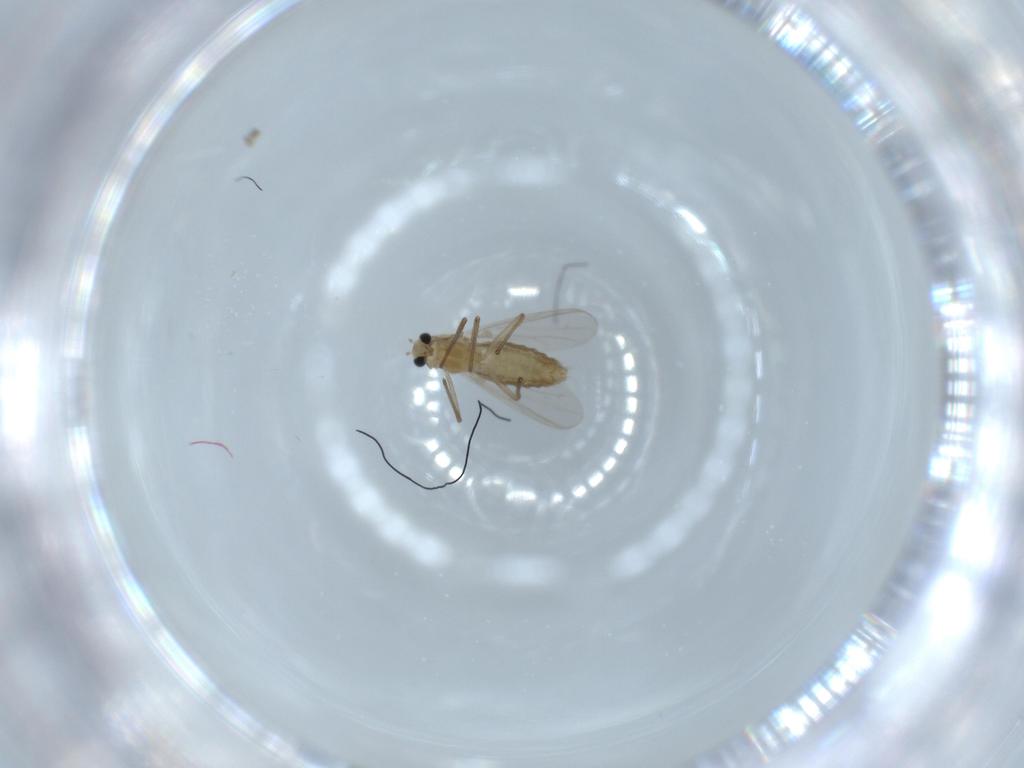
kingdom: Animalia
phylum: Arthropoda
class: Insecta
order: Diptera
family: Chironomidae
